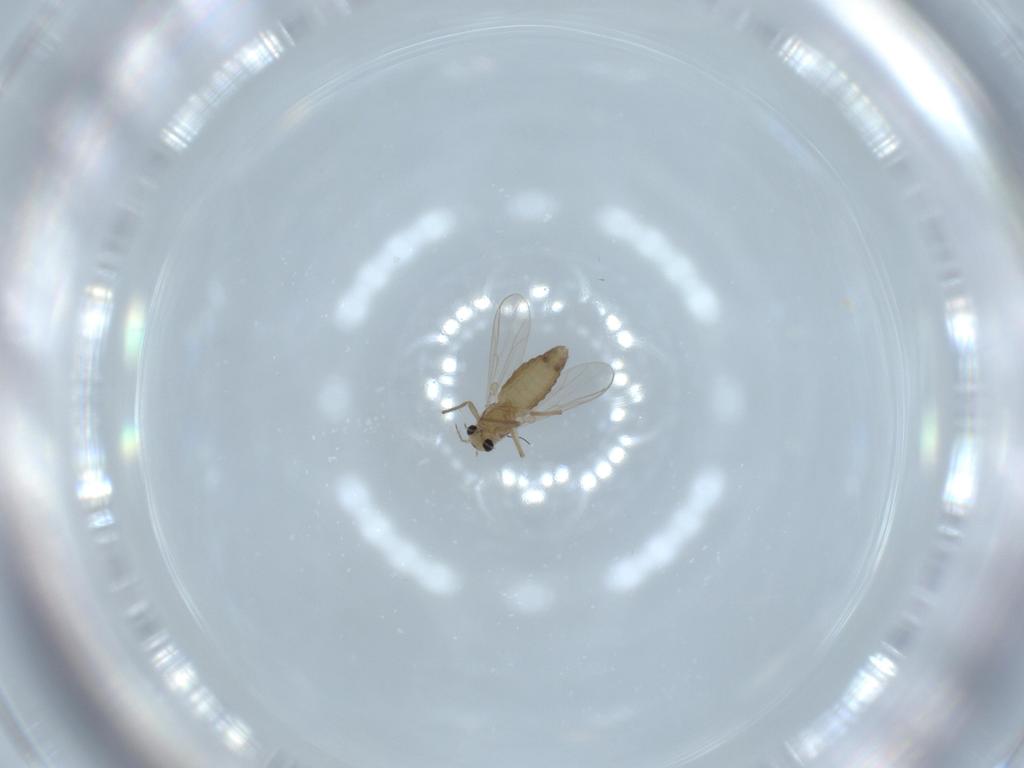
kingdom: Animalia
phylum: Arthropoda
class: Insecta
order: Diptera
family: Chironomidae
